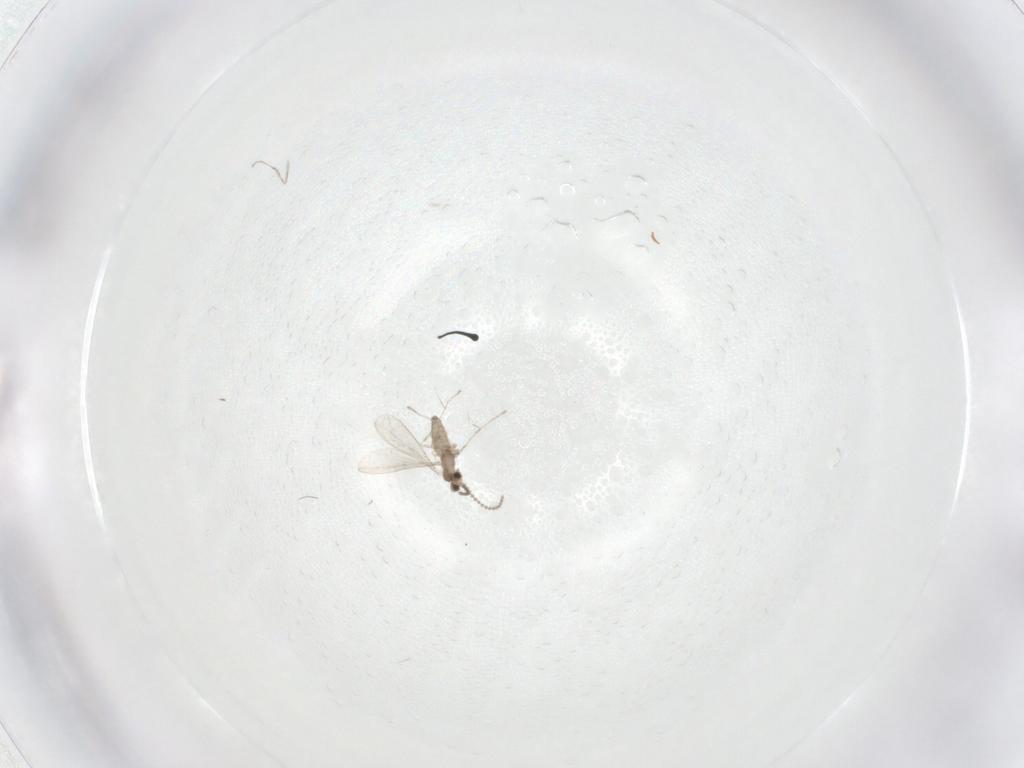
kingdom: Animalia
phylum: Arthropoda
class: Insecta
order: Diptera
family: Cecidomyiidae
